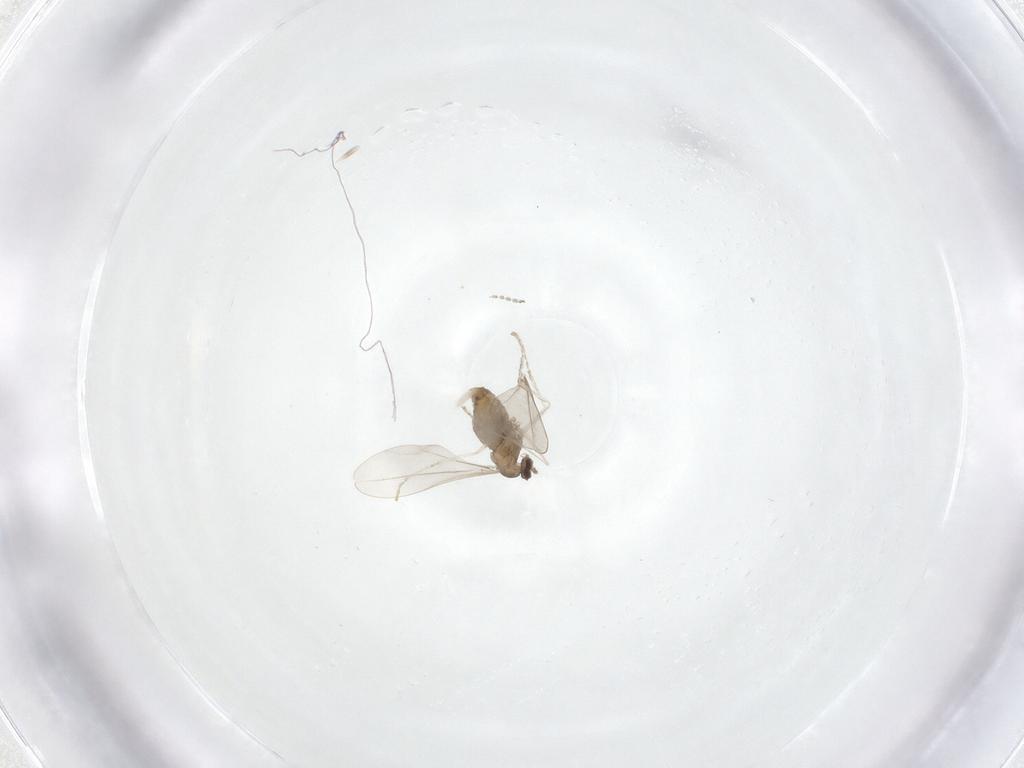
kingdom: Animalia
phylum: Arthropoda
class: Insecta
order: Diptera
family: Cecidomyiidae
